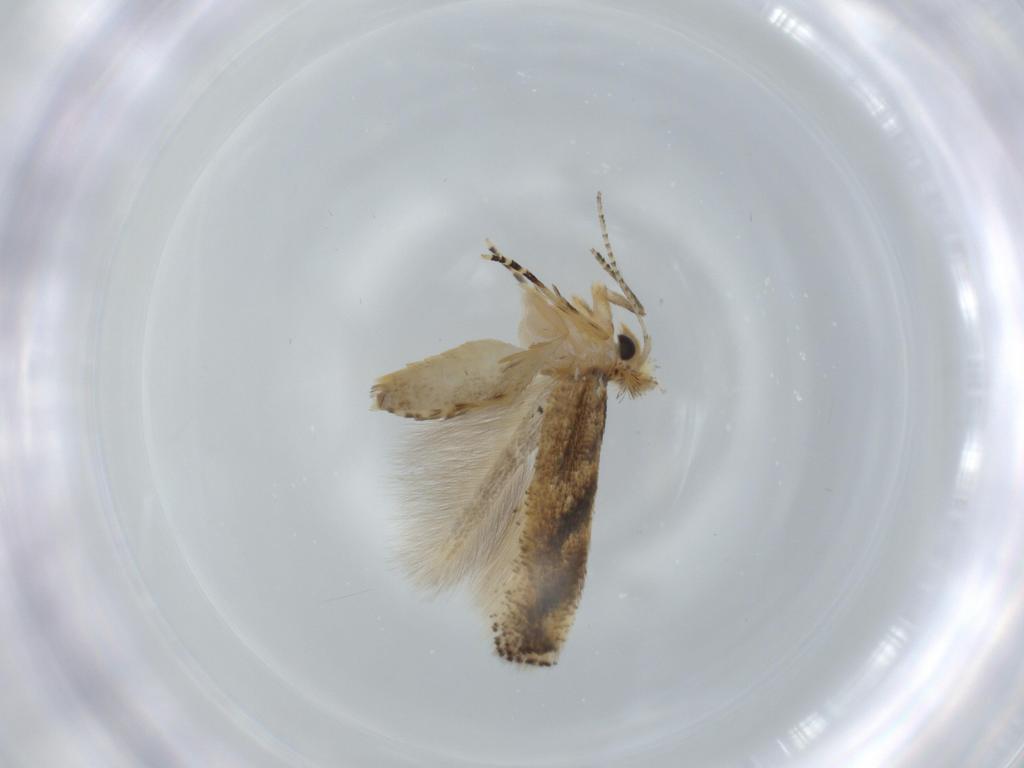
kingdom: Animalia
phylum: Arthropoda
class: Insecta
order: Lepidoptera
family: Bucculatricidae
